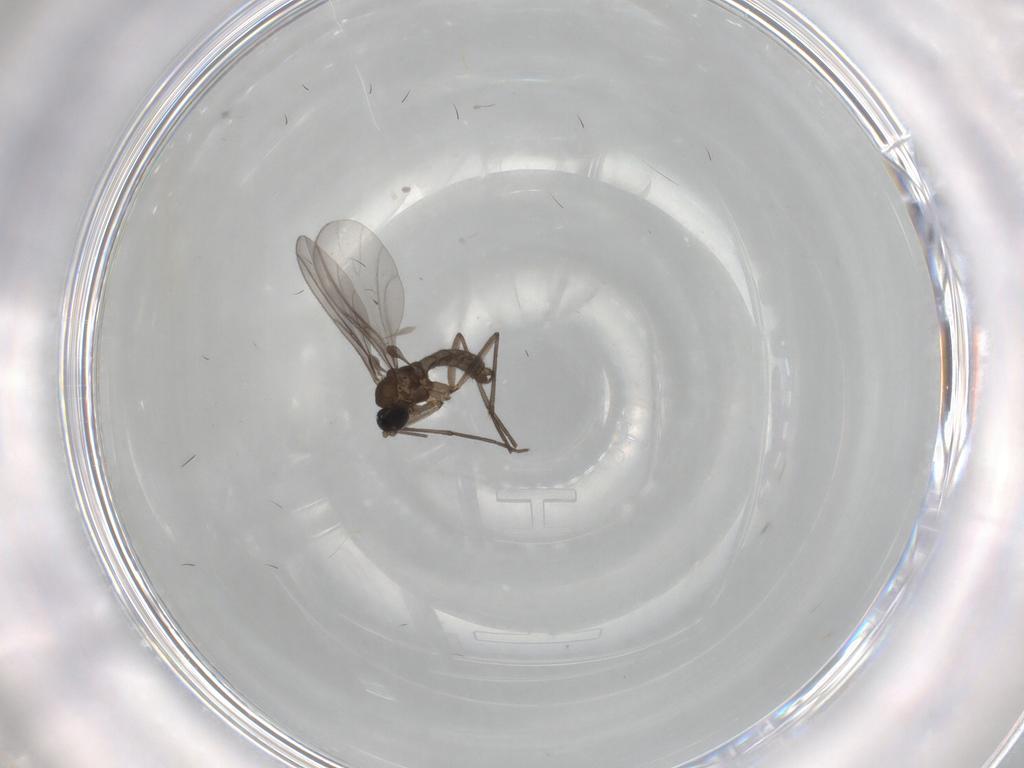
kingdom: Animalia
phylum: Arthropoda
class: Insecta
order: Diptera
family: Sciaridae
